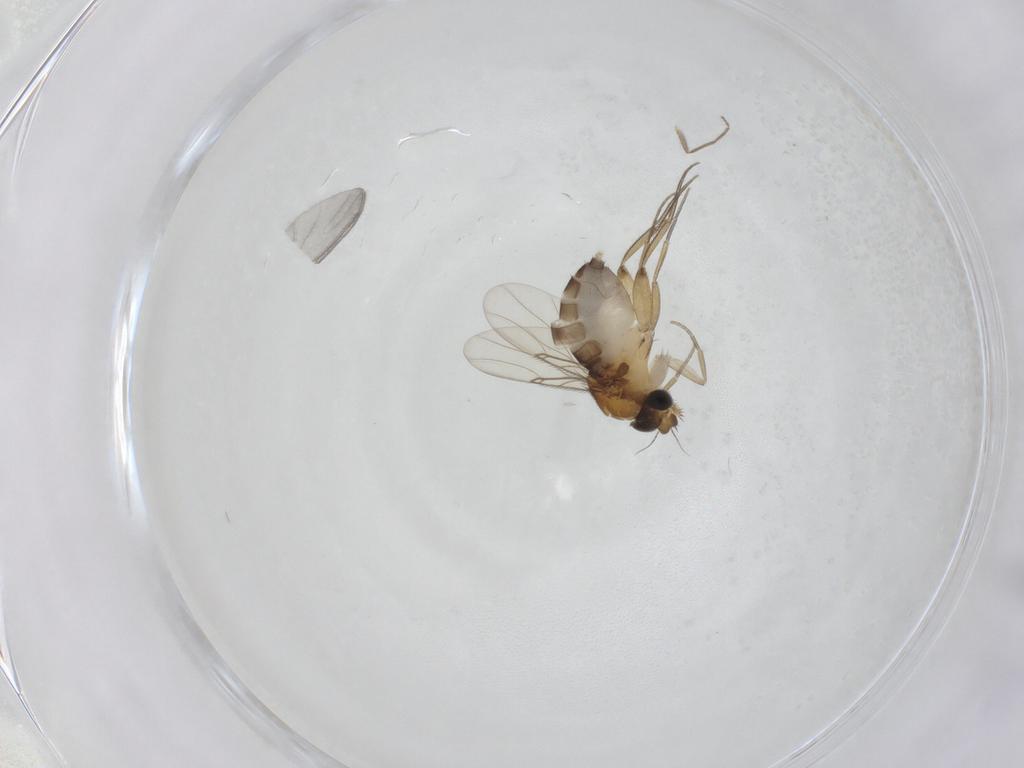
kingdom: Animalia
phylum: Arthropoda
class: Insecta
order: Diptera
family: Phoridae
